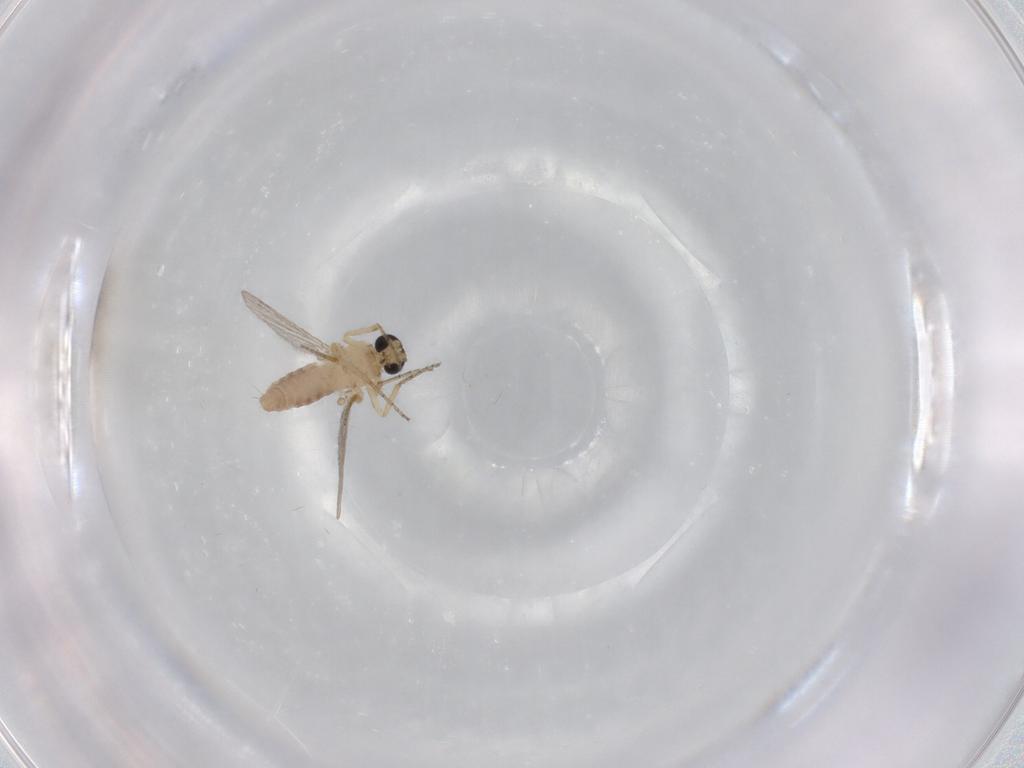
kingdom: Animalia
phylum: Arthropoda
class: Insecta
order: Diptera
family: Ceratopogonidae
